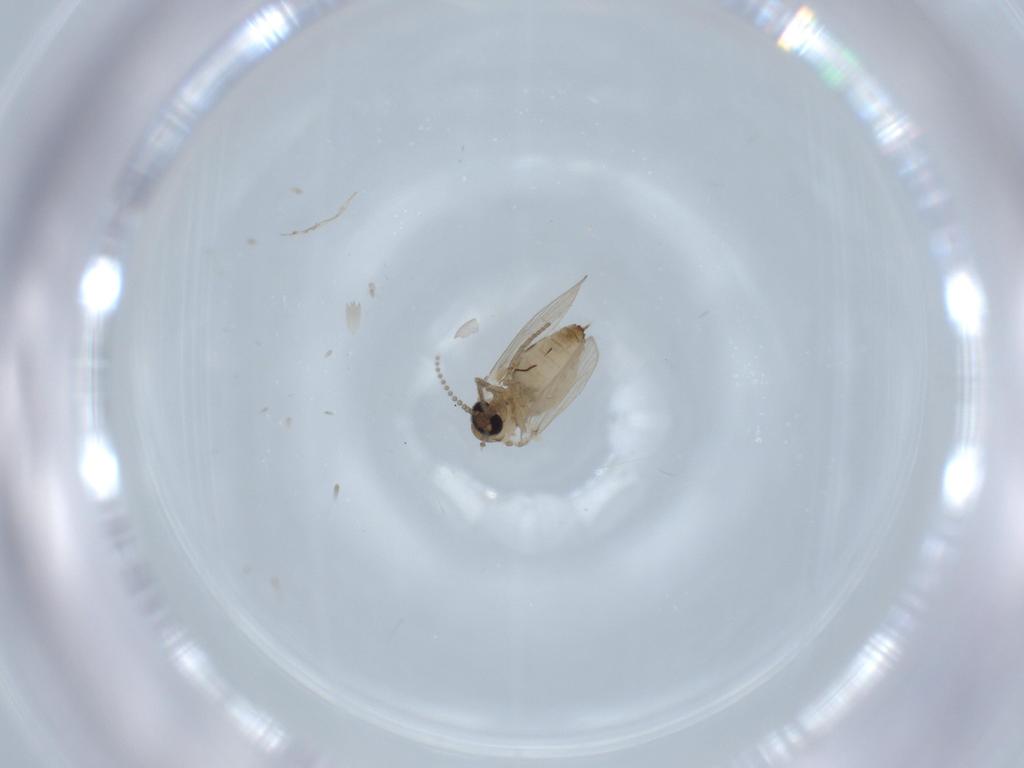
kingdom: Animalia
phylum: Arthropoda
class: Insecta
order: Diptera
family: Psychodidae
